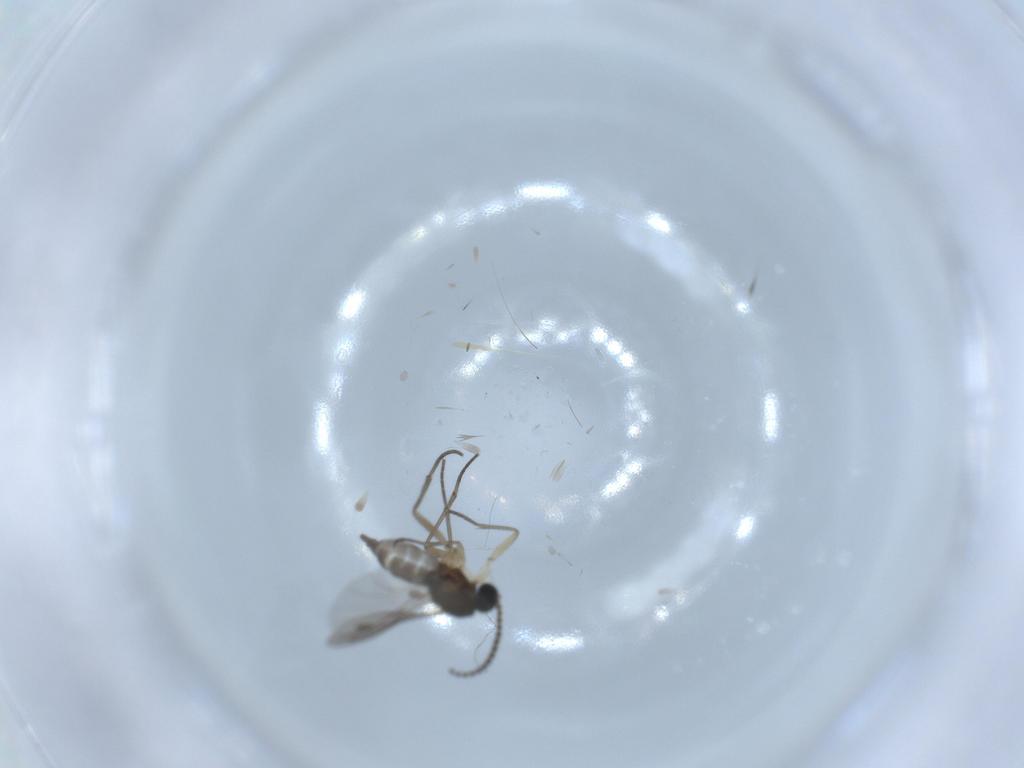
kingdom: Animalia
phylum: Arthropoda
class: Insecta
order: Diptera
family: Sciaridae
